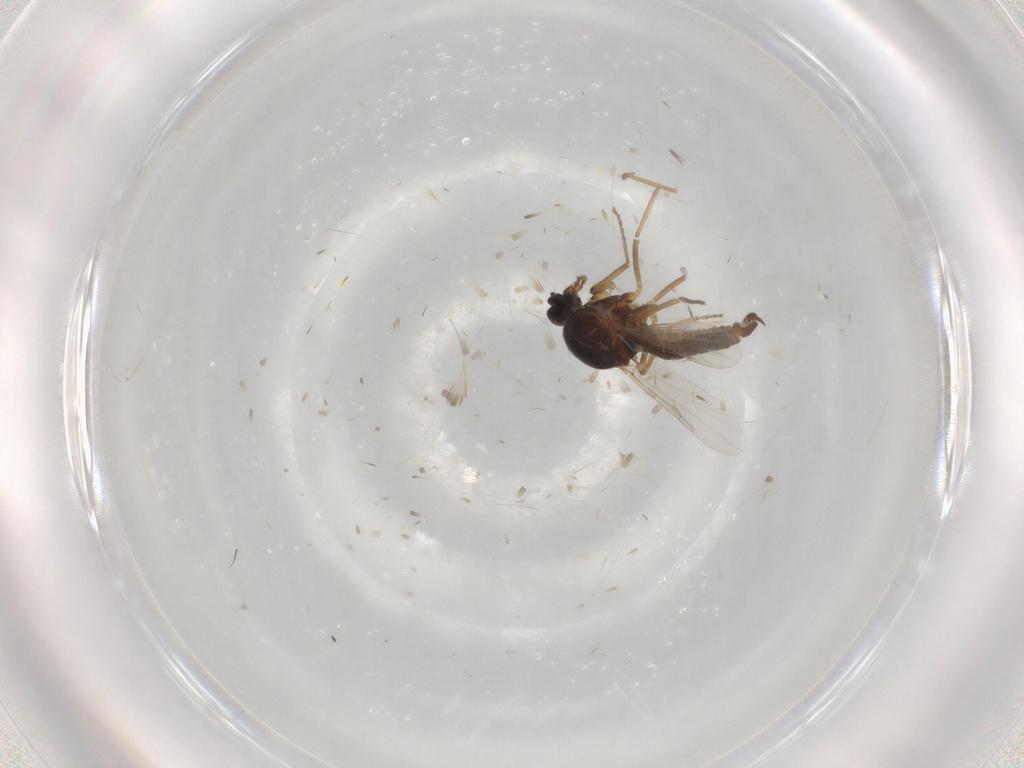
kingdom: Animalia
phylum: Arthropoda
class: Insecta
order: Diptera
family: Ceratopogonidae
